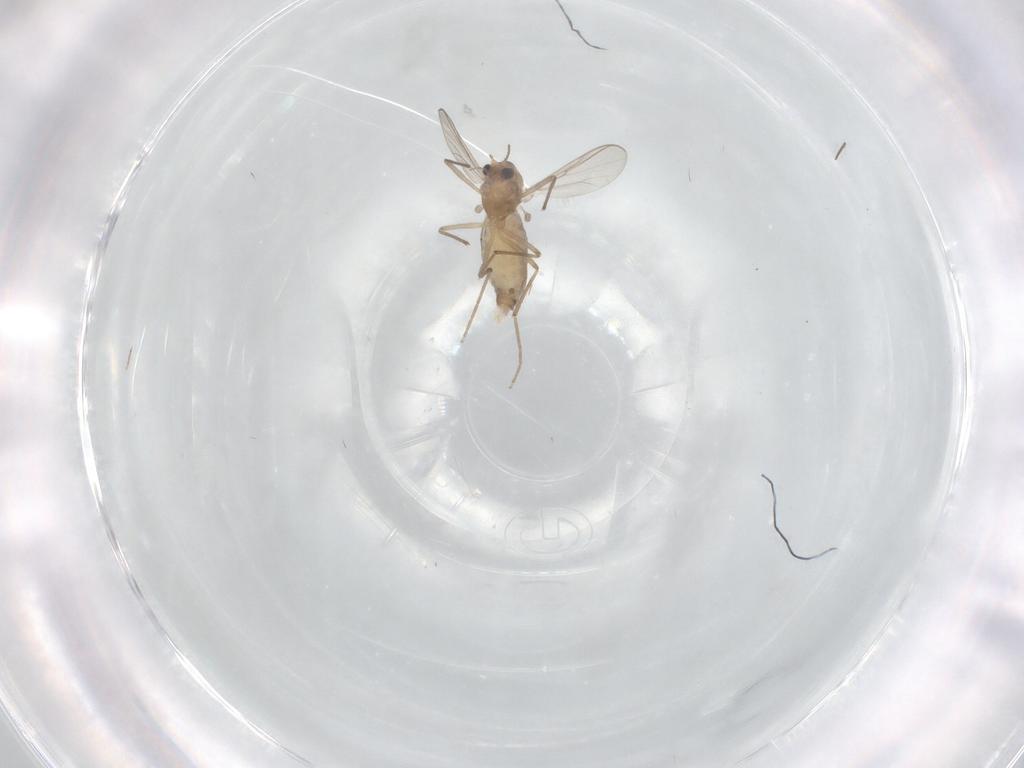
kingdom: Animalia
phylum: Arthropoda
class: Insecta
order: Diptera
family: Chironomidae
